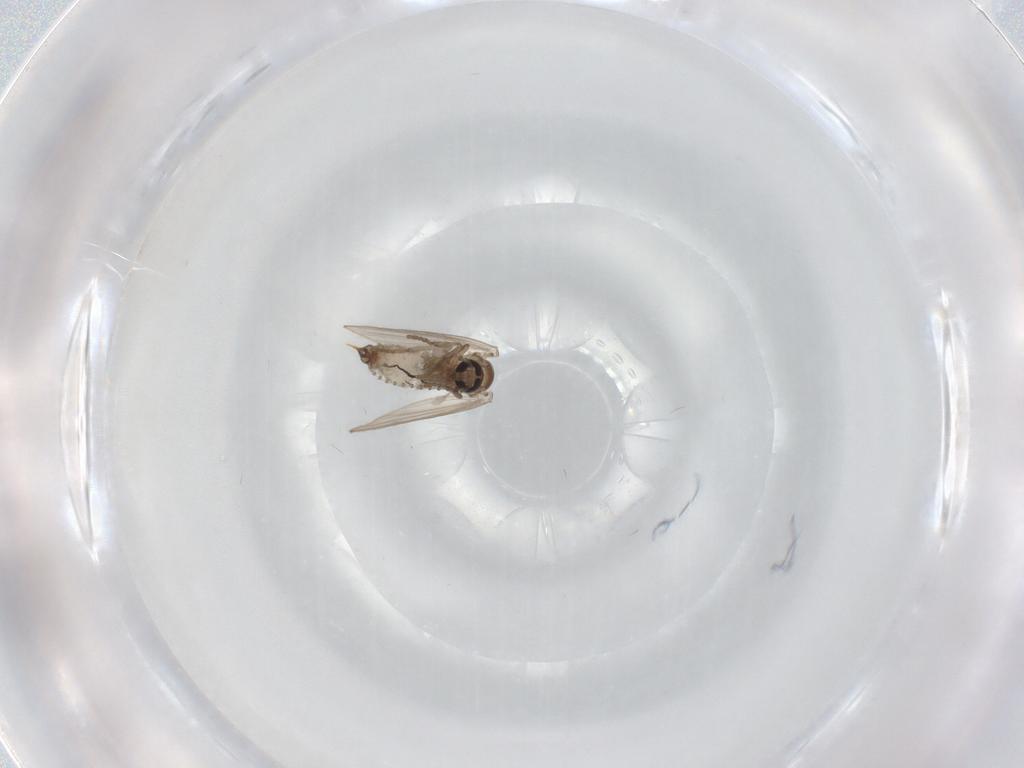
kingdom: Animalia
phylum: Arthropoda
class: Insecta
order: Diptera
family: Psychodidae
